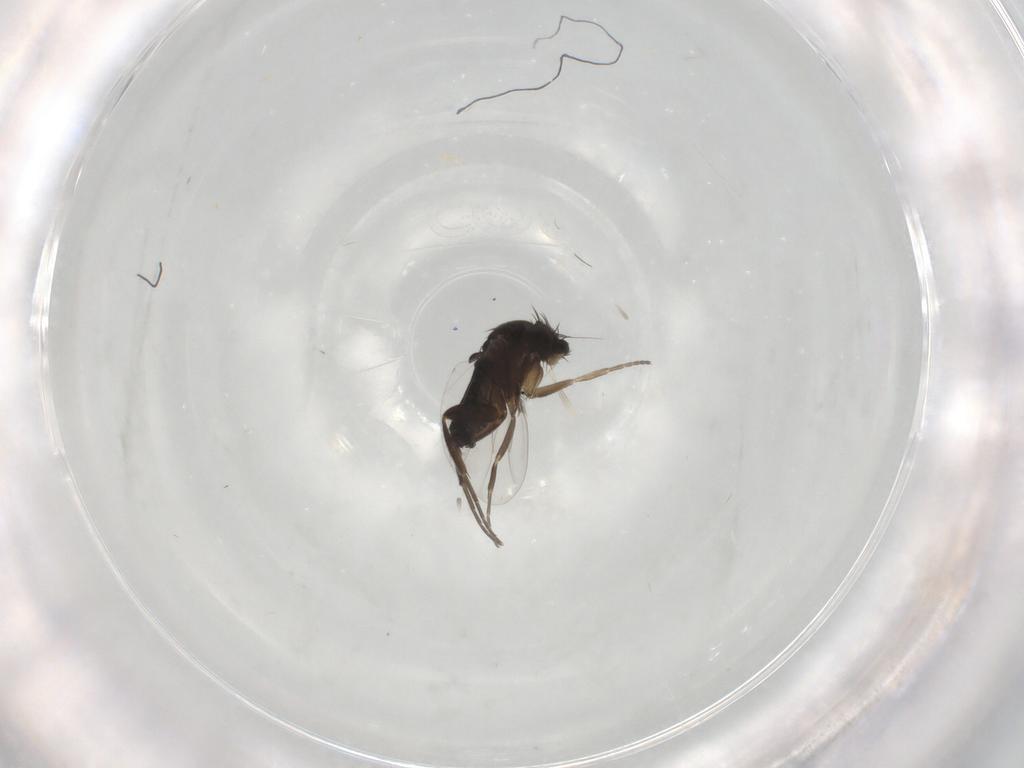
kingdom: Animalia
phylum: Arthropoda
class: Insecta
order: Diptera
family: Phoridae
